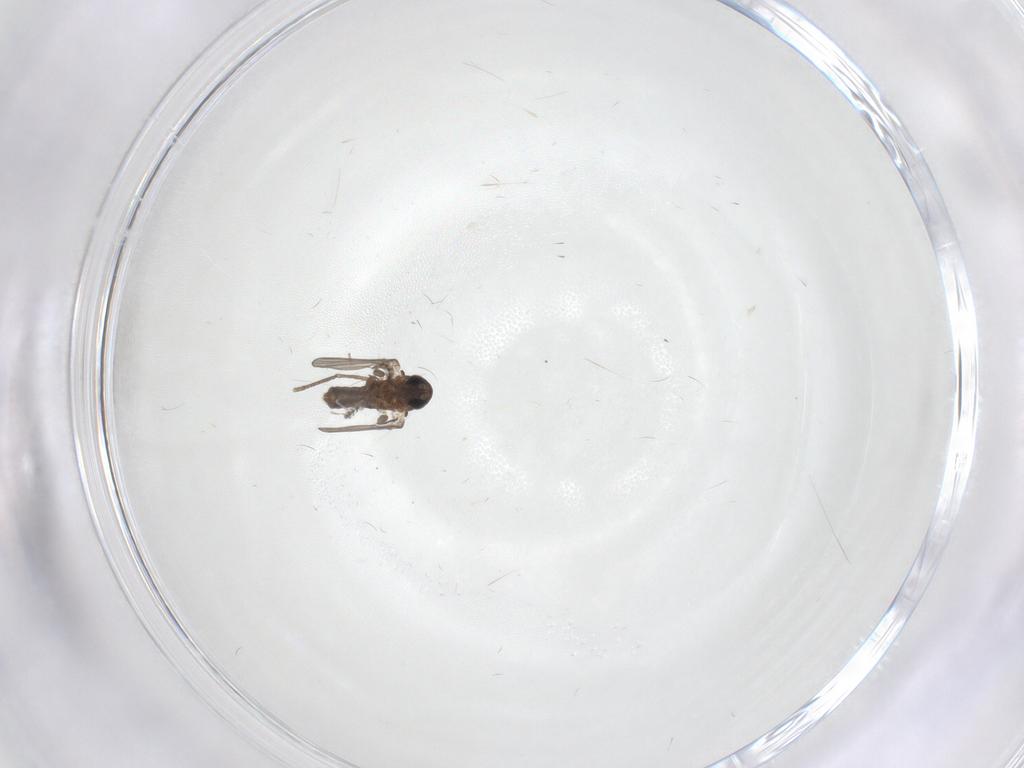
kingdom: Animalia
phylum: Arthropoda
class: Insecta
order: Diptera
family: Cecidomyiidae
